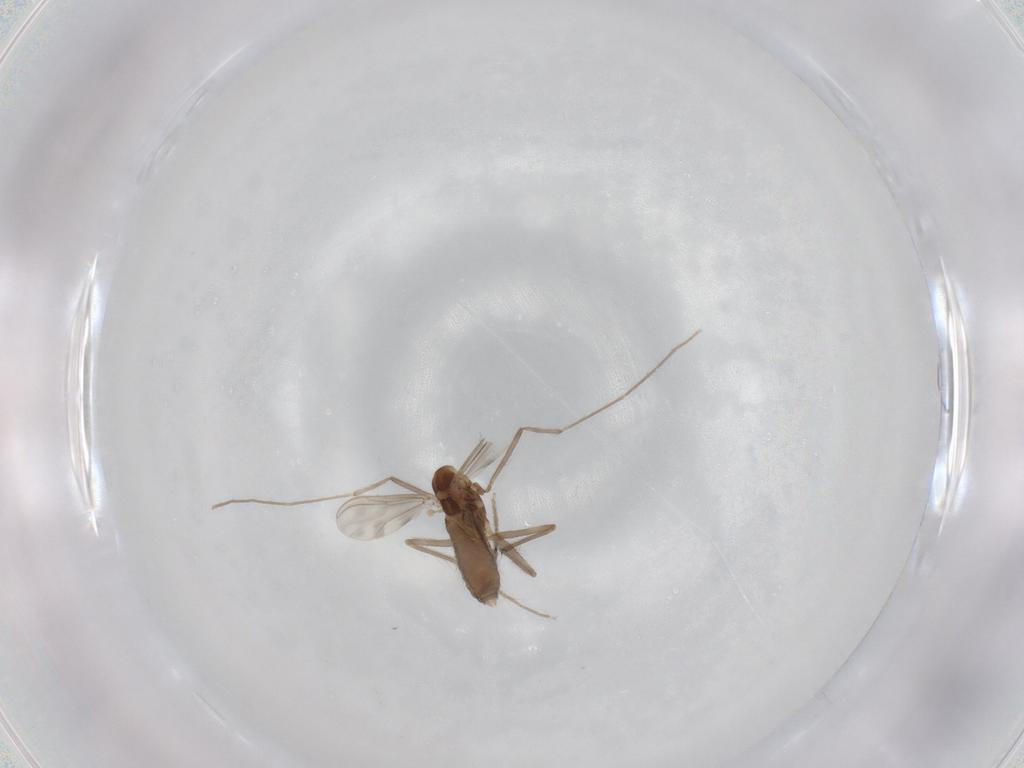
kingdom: Animalia
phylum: Arthropoda
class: Insecta
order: Diptera
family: Chironomidae
